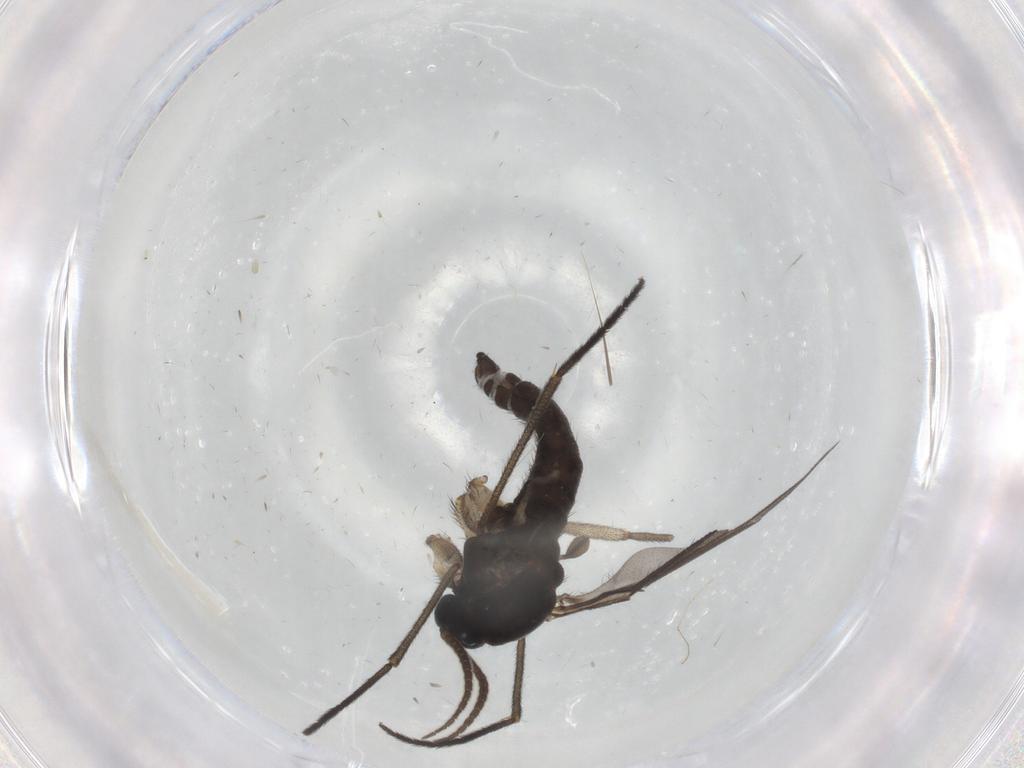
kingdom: Animalia
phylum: Arthropoda
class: Insecta
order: Diptera
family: Sciaridae
